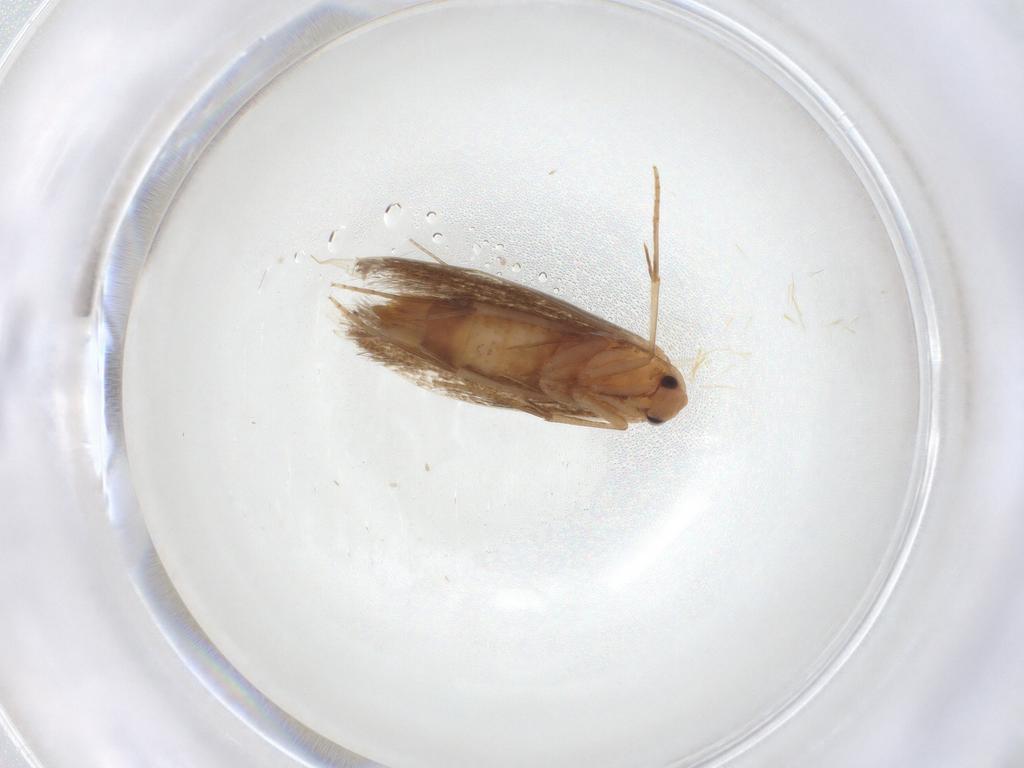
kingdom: Animalia
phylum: Arthropoda
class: Insecta
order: Lepidoptera
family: Bucculatricidae
